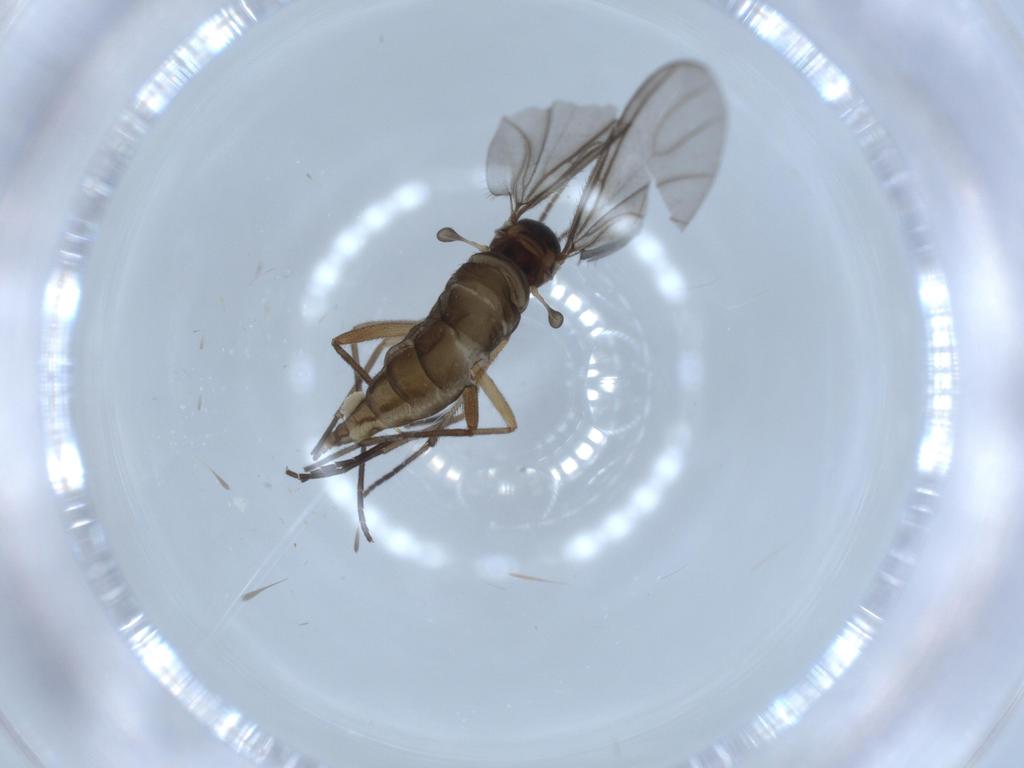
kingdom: Animalia
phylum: Arthropoda
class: Insecta
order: Diptera
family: Sciaridae
